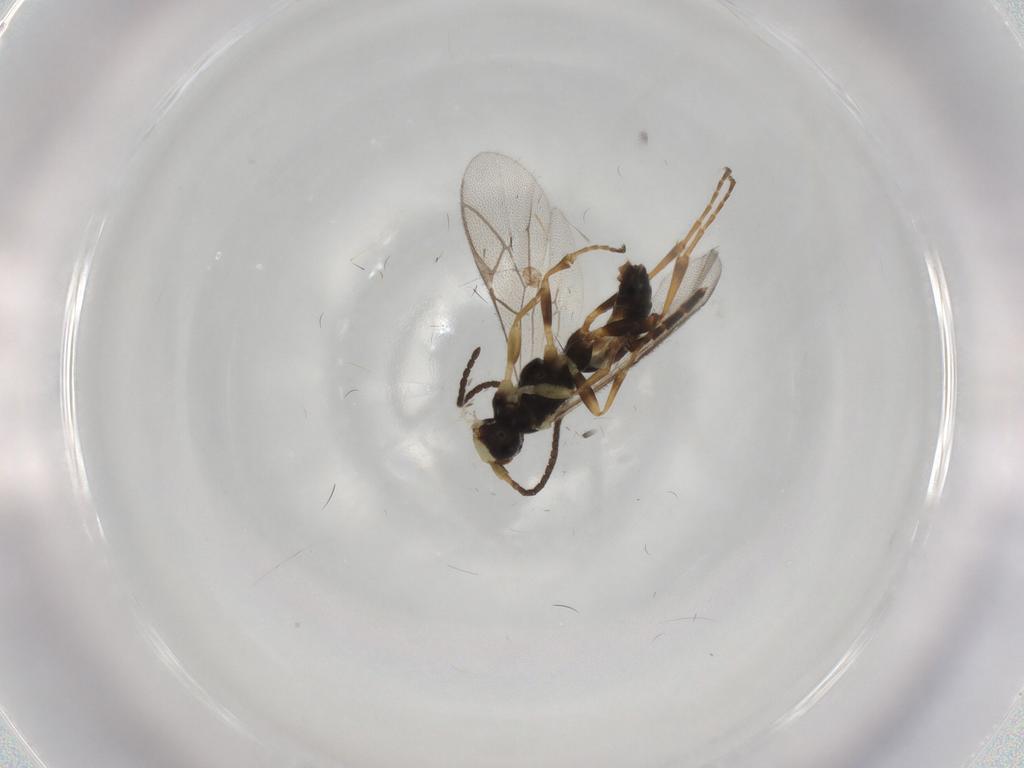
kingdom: Animalia
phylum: Arthropoda
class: Insecta
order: Hymenoptera
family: Ichneumonidae
